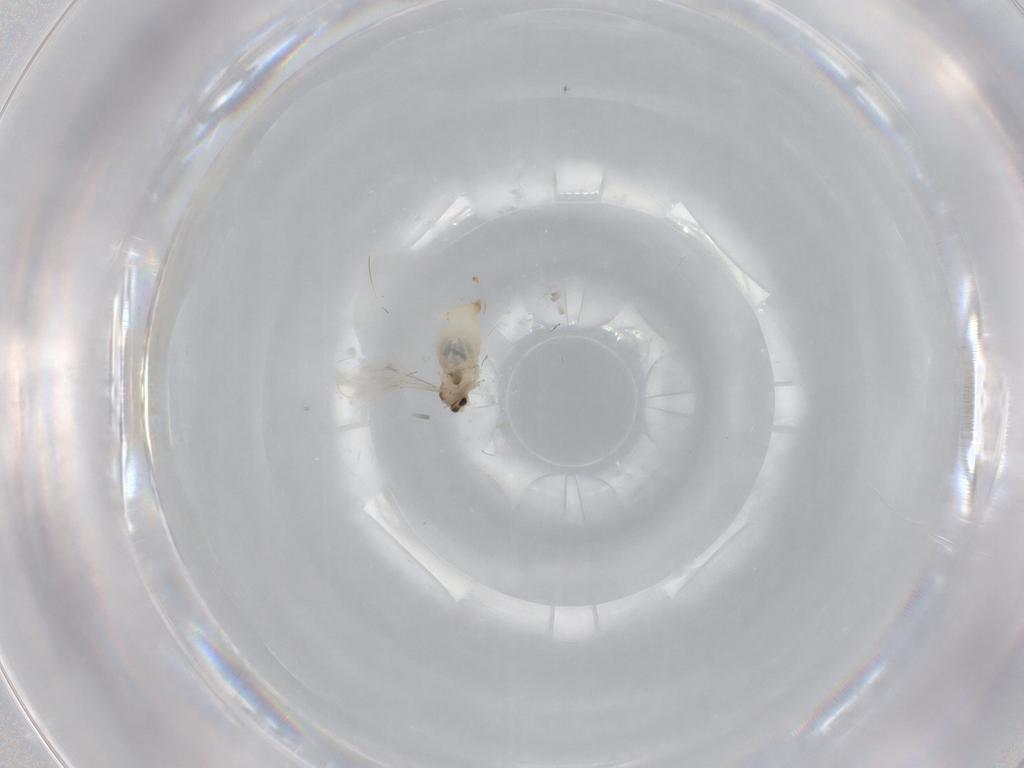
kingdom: Animalia
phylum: Arthropoda
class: Insecta
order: Diptera
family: Cecidomyiidae
